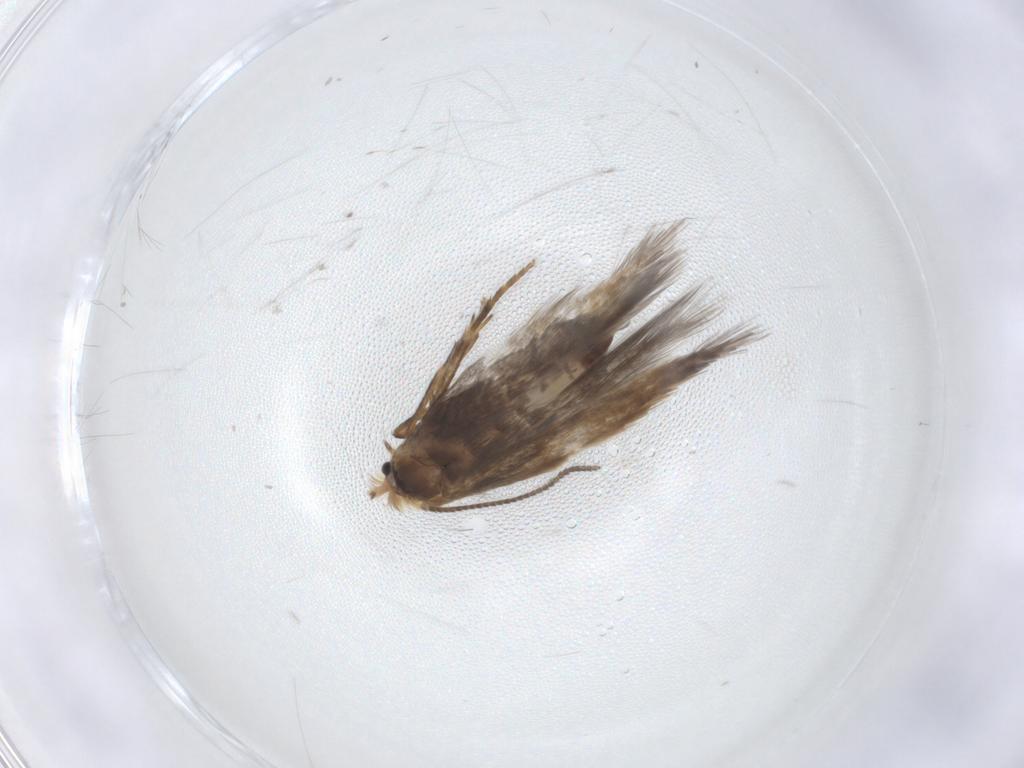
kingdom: Animalia
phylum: Arthropoda
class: Insecta
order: Lepidoptera
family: Nepticulidae
